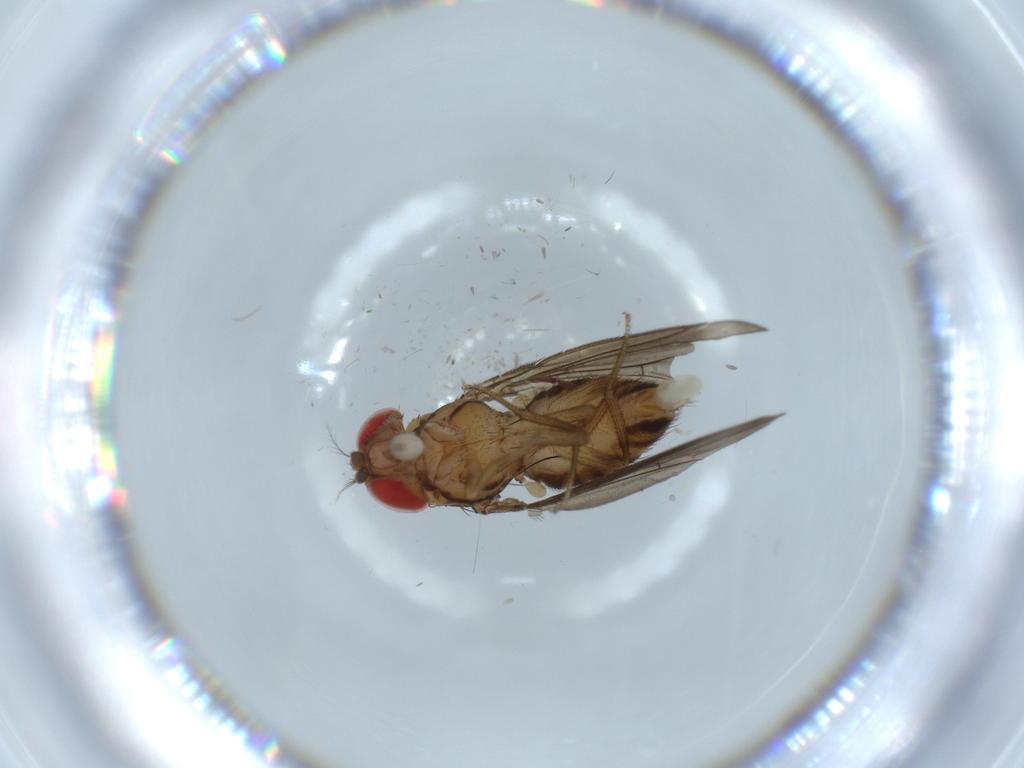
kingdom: Animalia
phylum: Arthropoda
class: Insecta
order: Diptera
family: Drosophilidae
